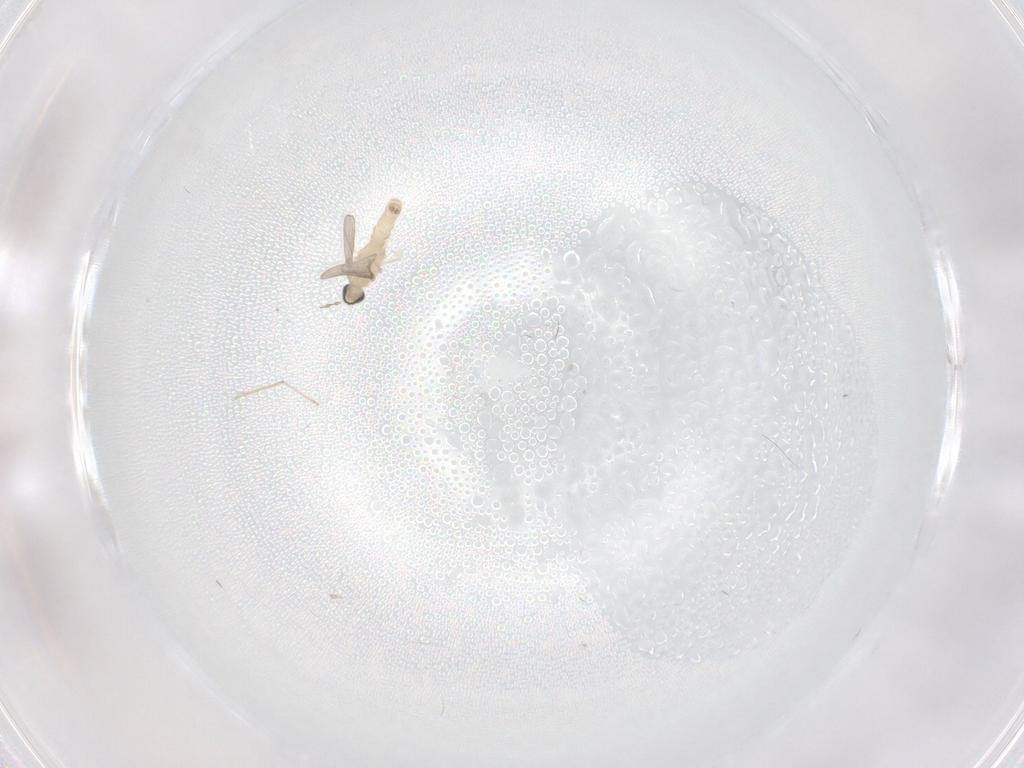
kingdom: Animalia
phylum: Arthropoda
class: Insecta
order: Diptera
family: Cecidomyiidae
